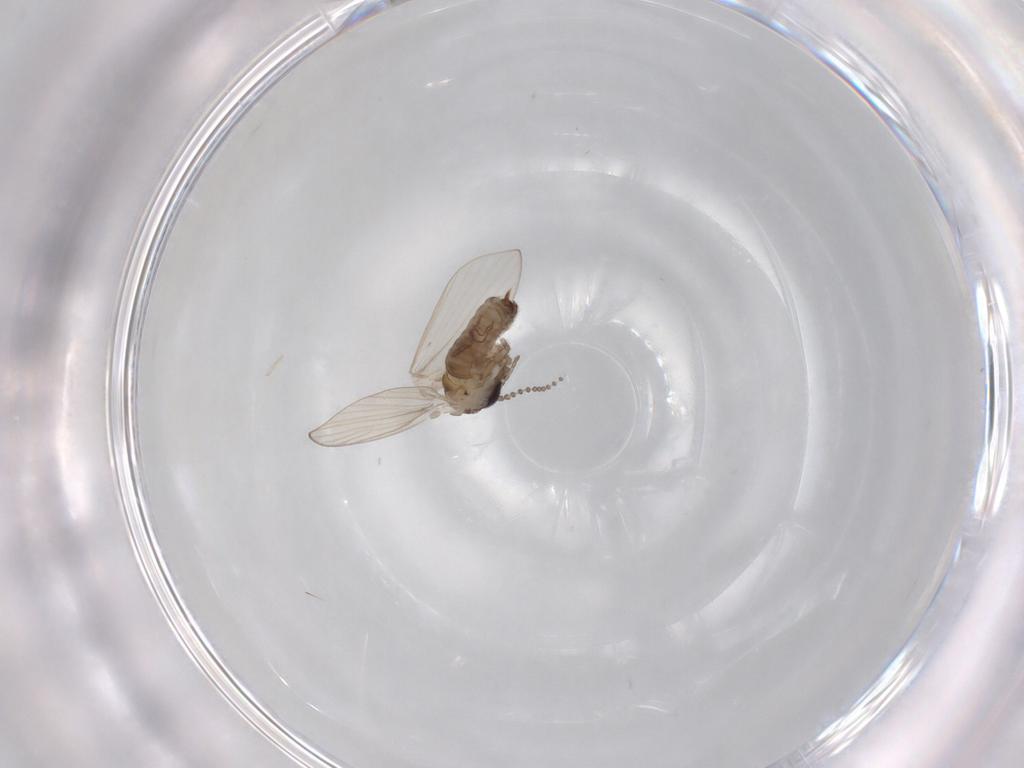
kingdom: Animalia
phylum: Arthropoda
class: Insecta
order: Diptera
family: Psychodidae
